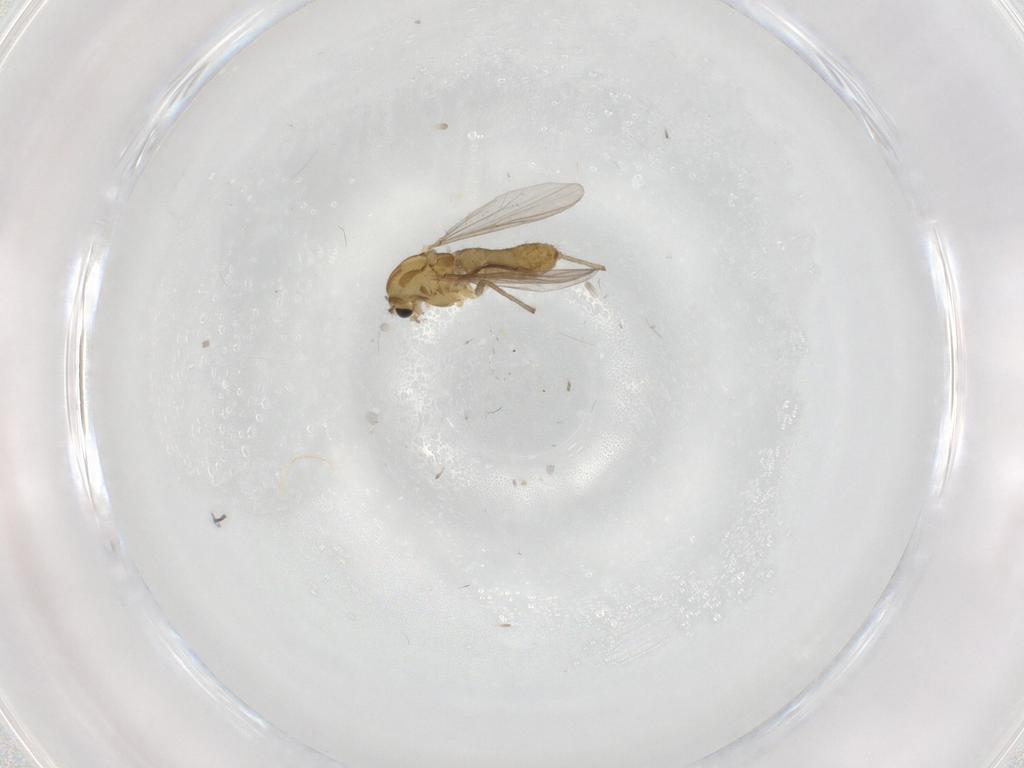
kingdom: Animalia
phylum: Arthropoda
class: Insecta
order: Diptera
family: Chironomidae
